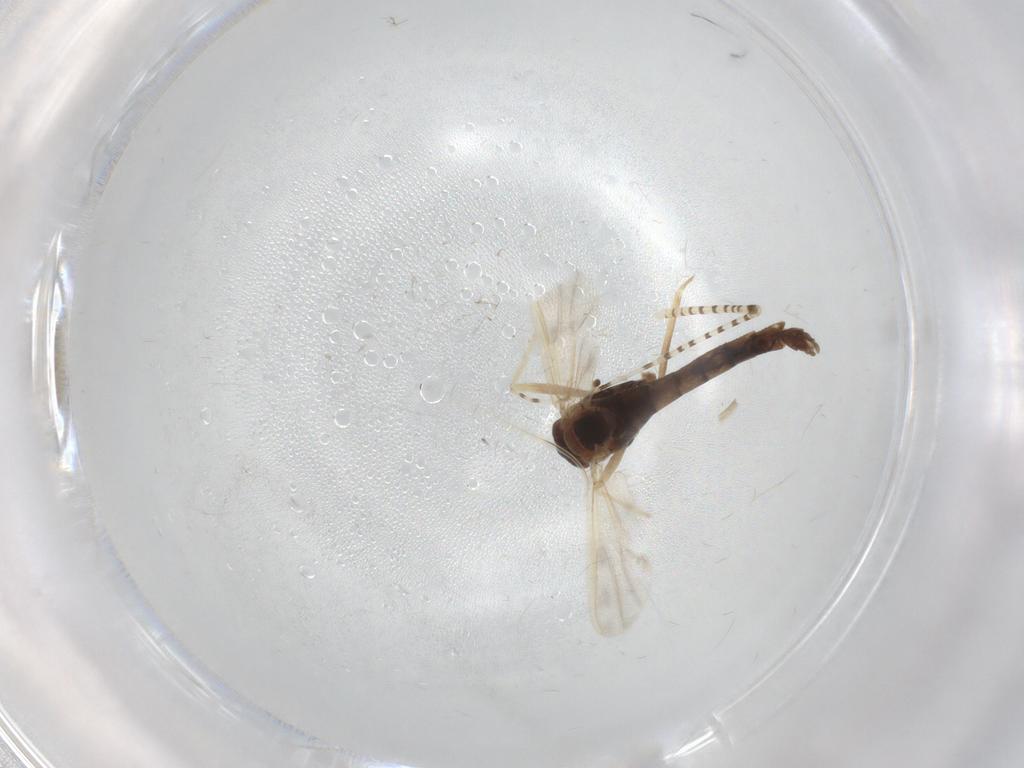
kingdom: Animalia
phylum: Arthropoda
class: Insecta
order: Diptera
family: Chironomidae
